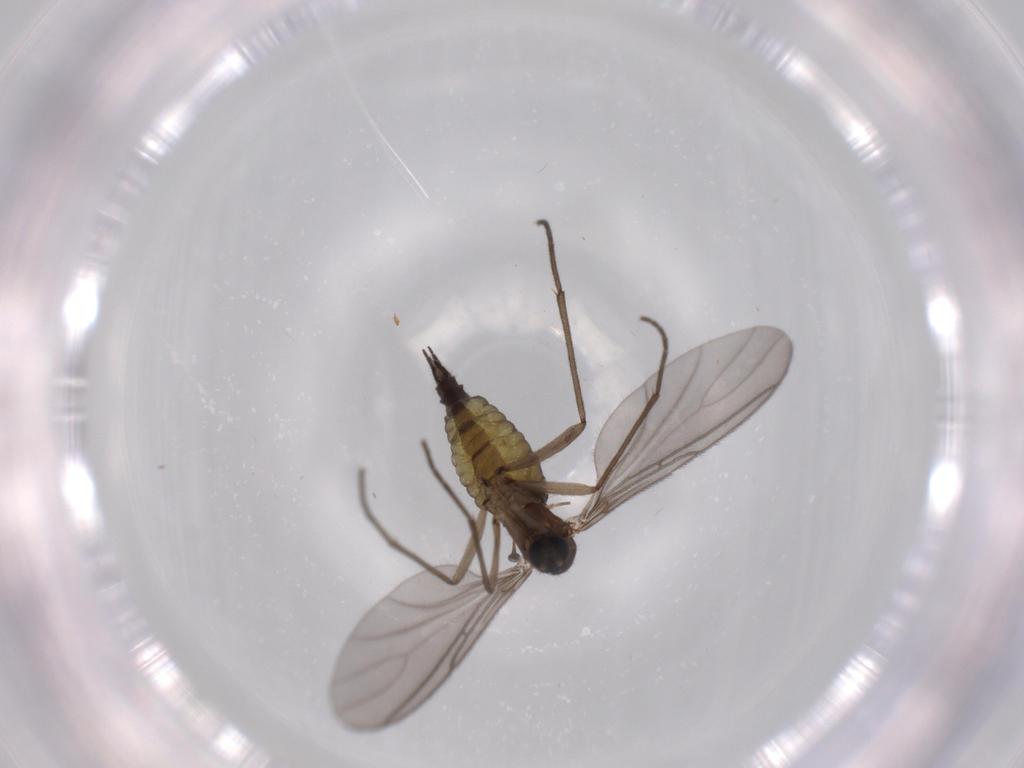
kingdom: Animalia
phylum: Arthropoda
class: Insecta
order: Diptera
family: Sciaridae
